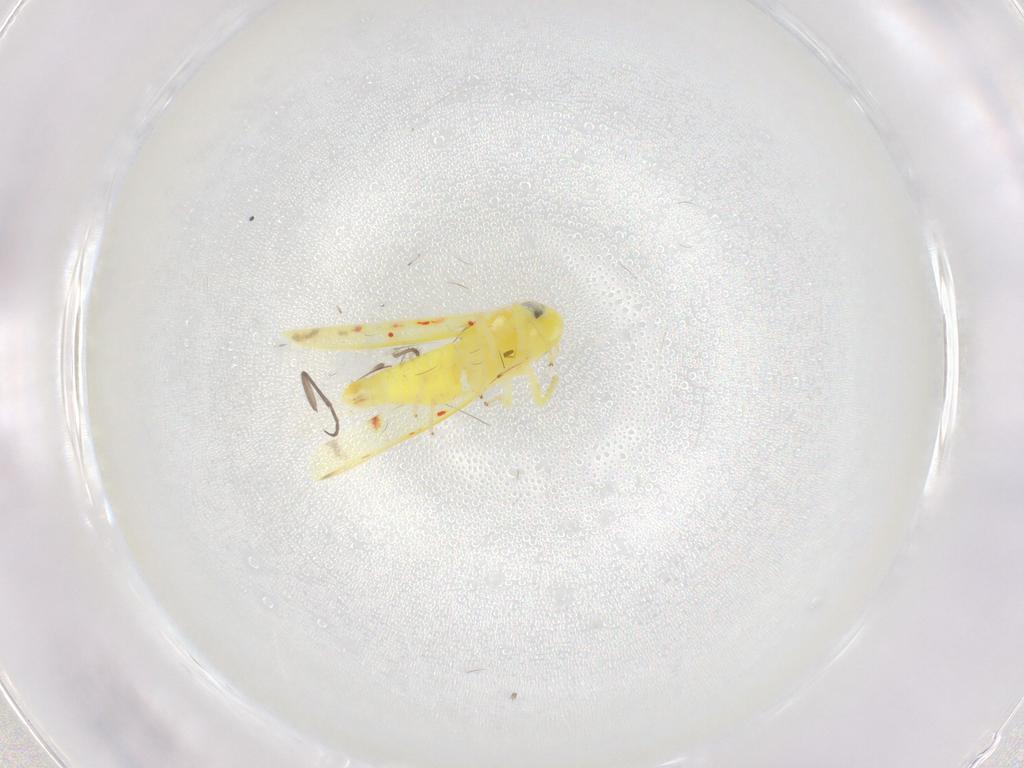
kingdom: Animalia
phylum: Arthropoda
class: Insecta
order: Hemiptera
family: Cicadellidae
